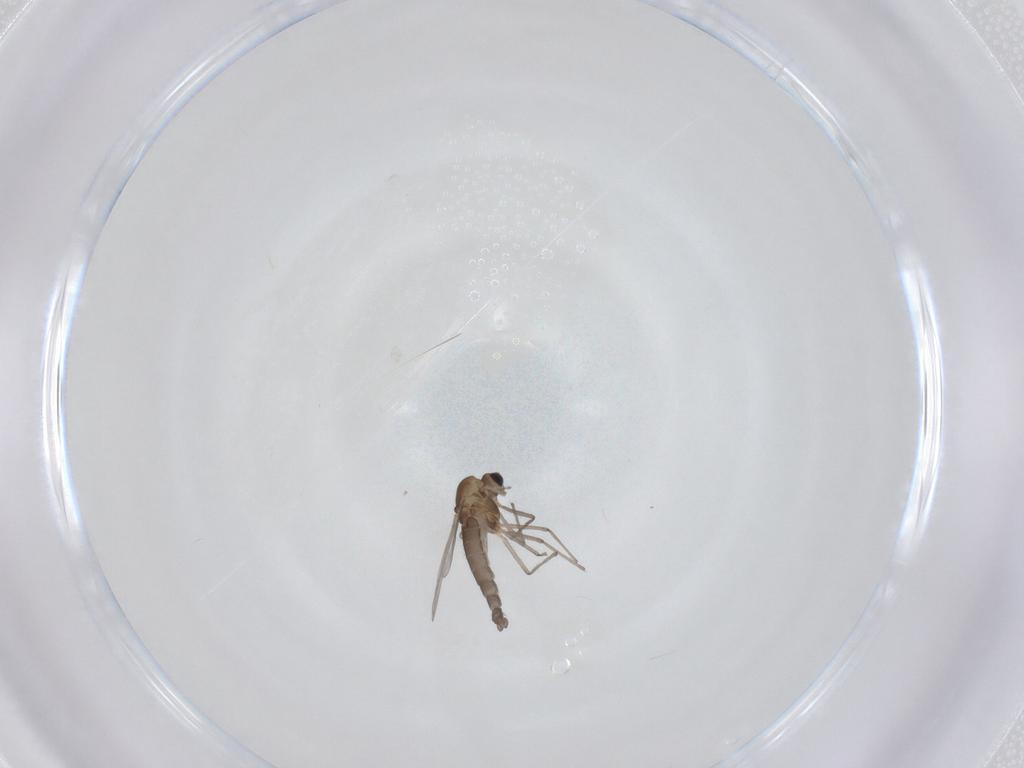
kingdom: Animalia
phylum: Arthropoda
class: Insecta
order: Diptera
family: Chironomidae
